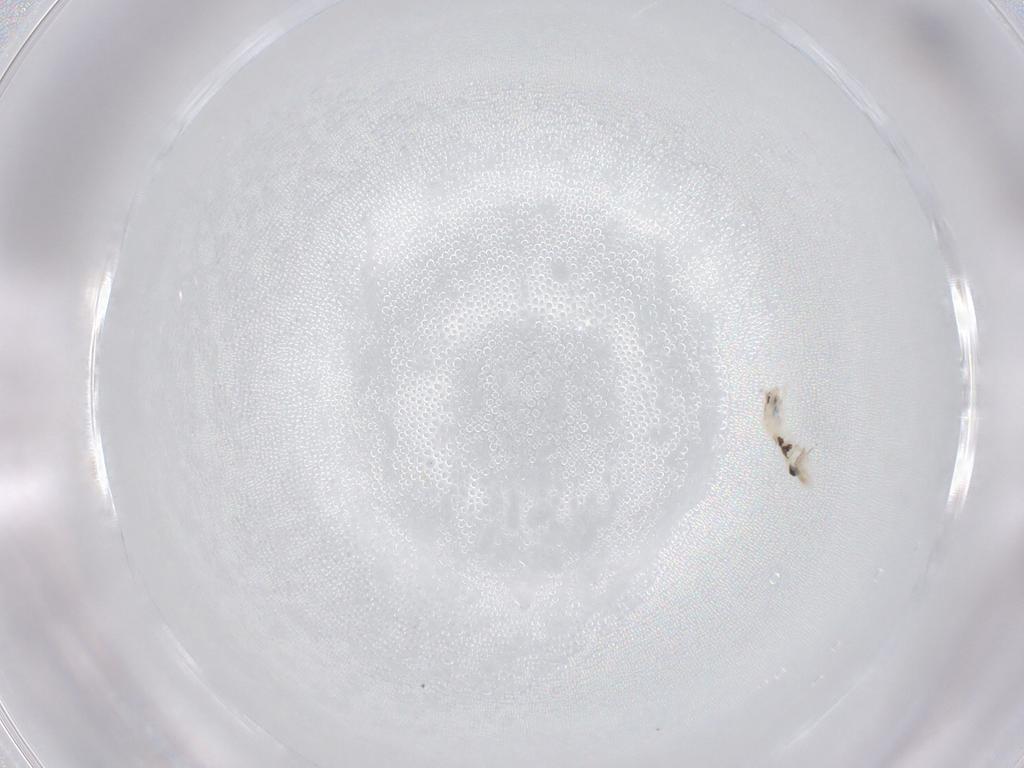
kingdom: Animalia
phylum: Arthropoda
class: Collembola
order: Entomobryomorpha
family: Entomobryidae
